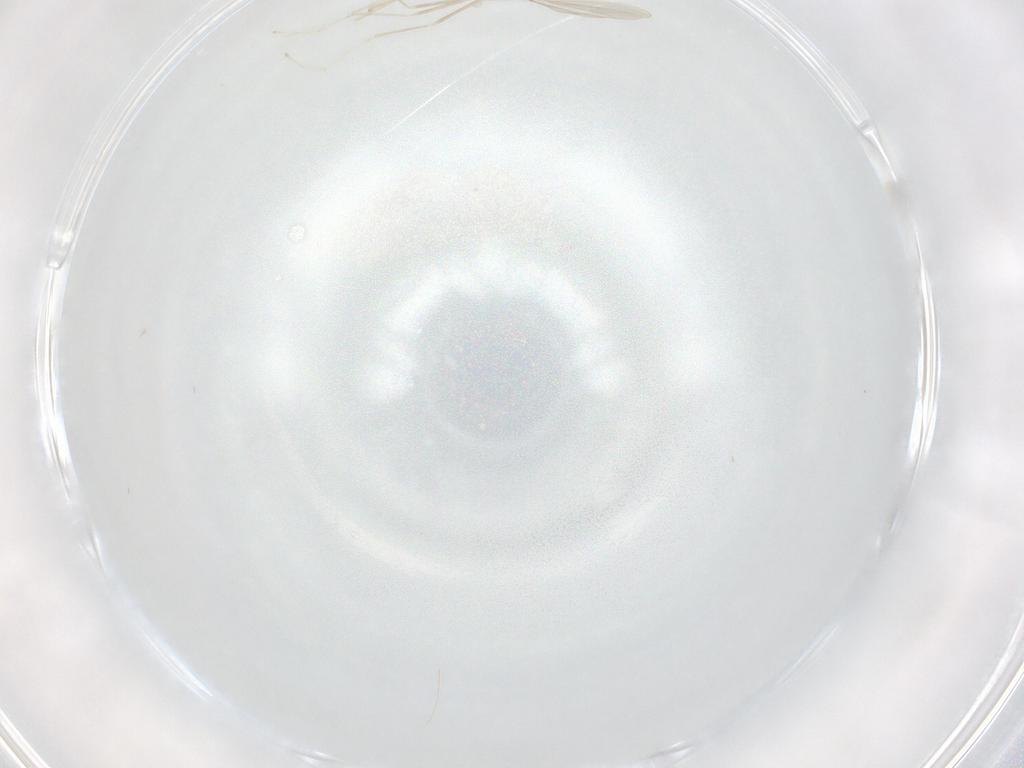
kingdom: Animalia
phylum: Arthropoda
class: Insecta
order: Diptera
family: Cecidomyiidae
